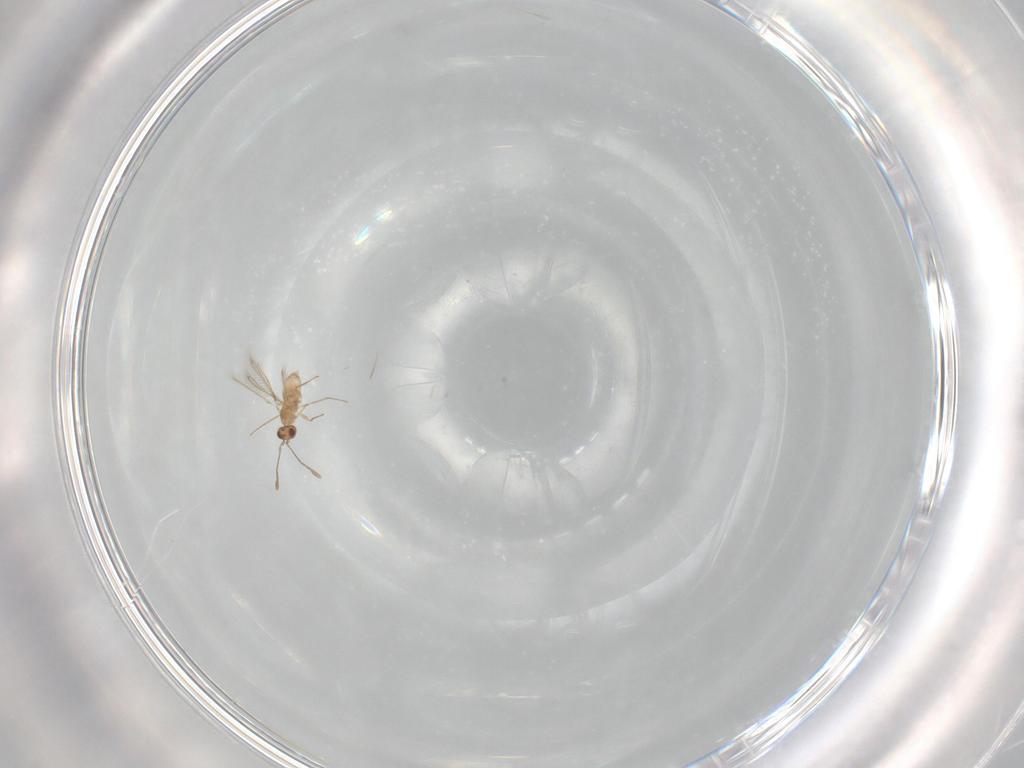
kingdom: Animalia
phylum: Arthropoda
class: Insecta
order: Hymenoptera
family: Mymaridae
